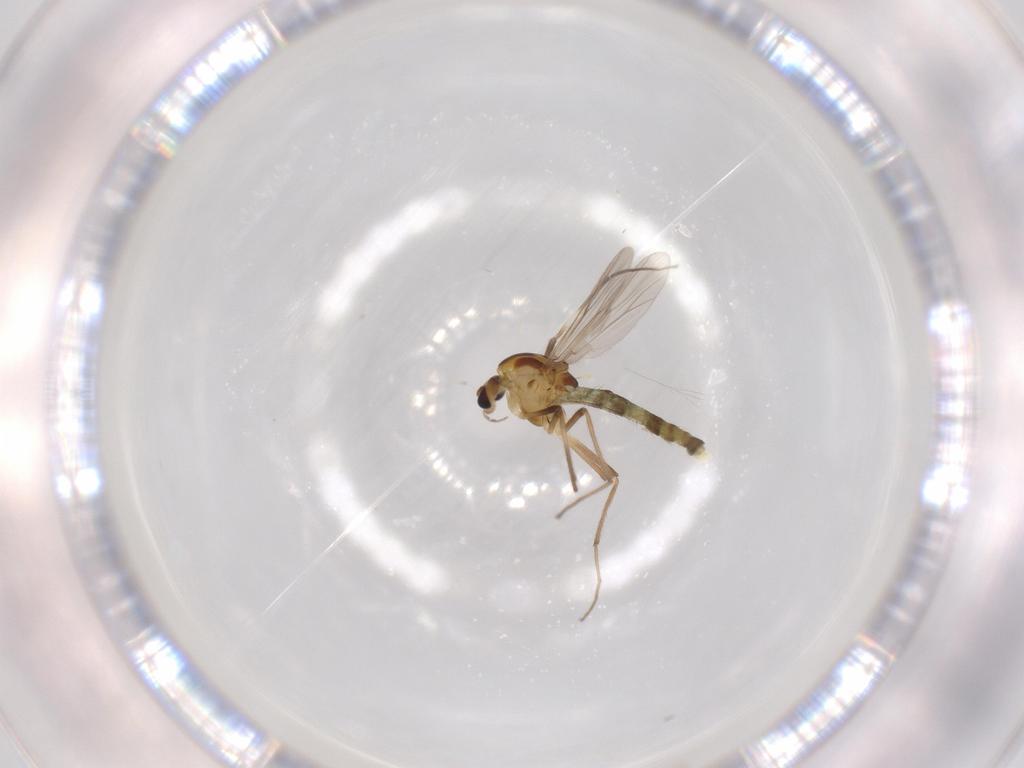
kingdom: Animalia
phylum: Arthropoda
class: Insecta
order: Diptera
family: Chironomidae
